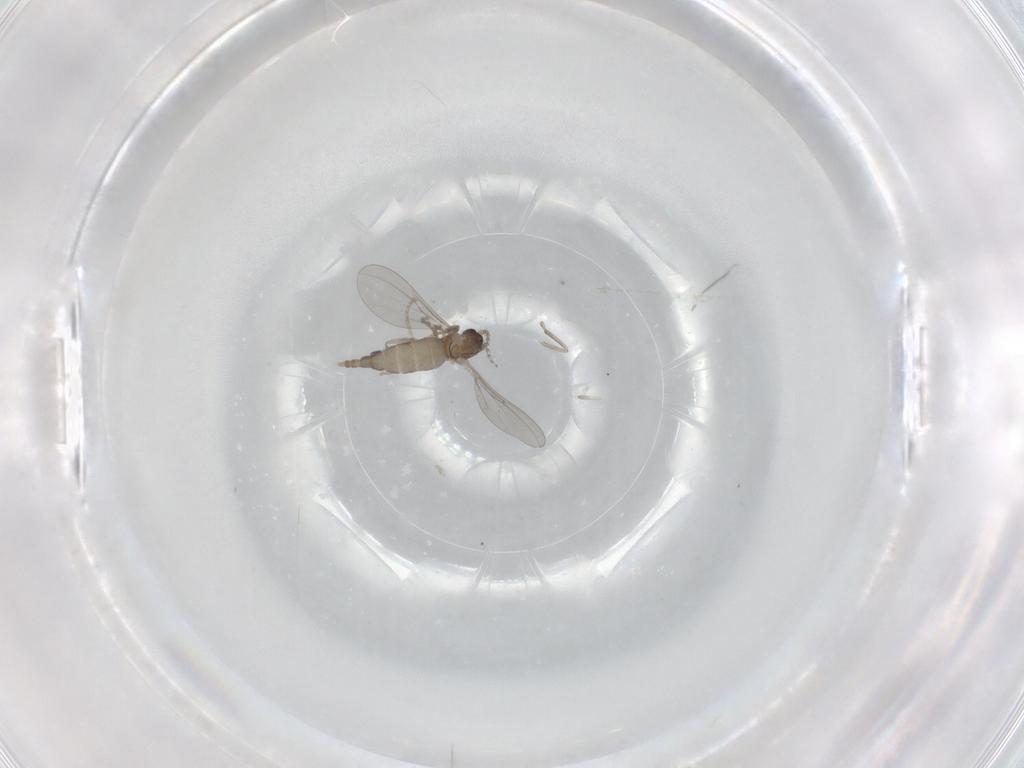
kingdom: Animalia
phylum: Arthropoda
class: Insecta
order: Diptera
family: Cecidomyiidae
